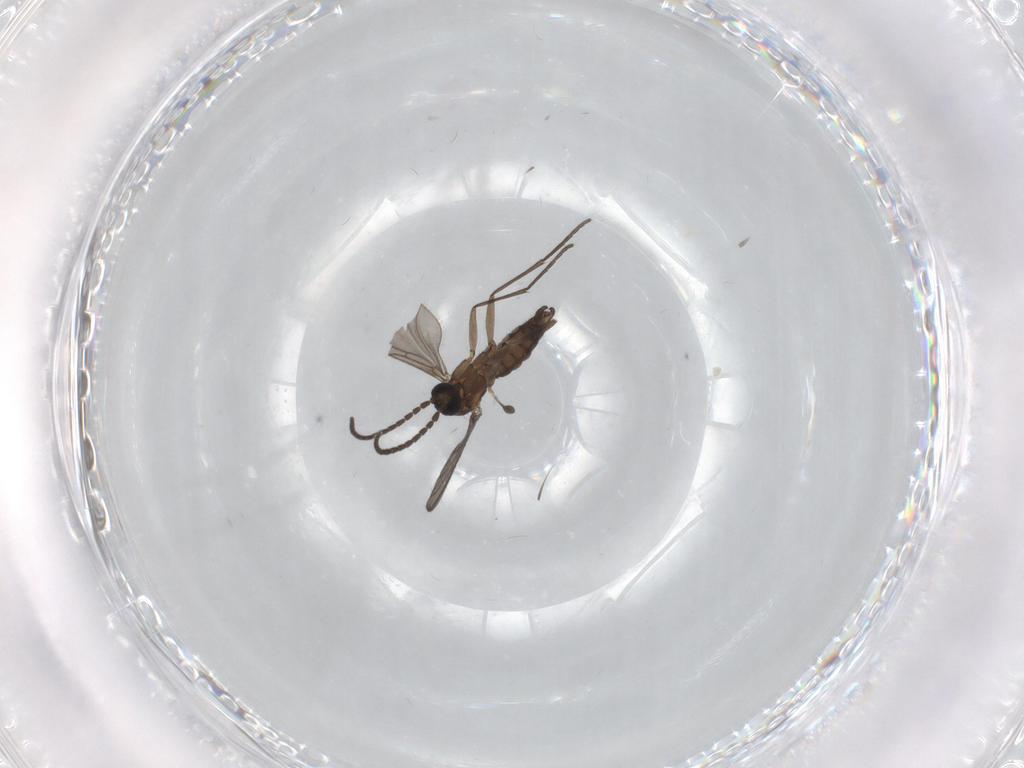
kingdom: Animalia
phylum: Arthropoda
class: Insecta
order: Diptera
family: Sciaridae
